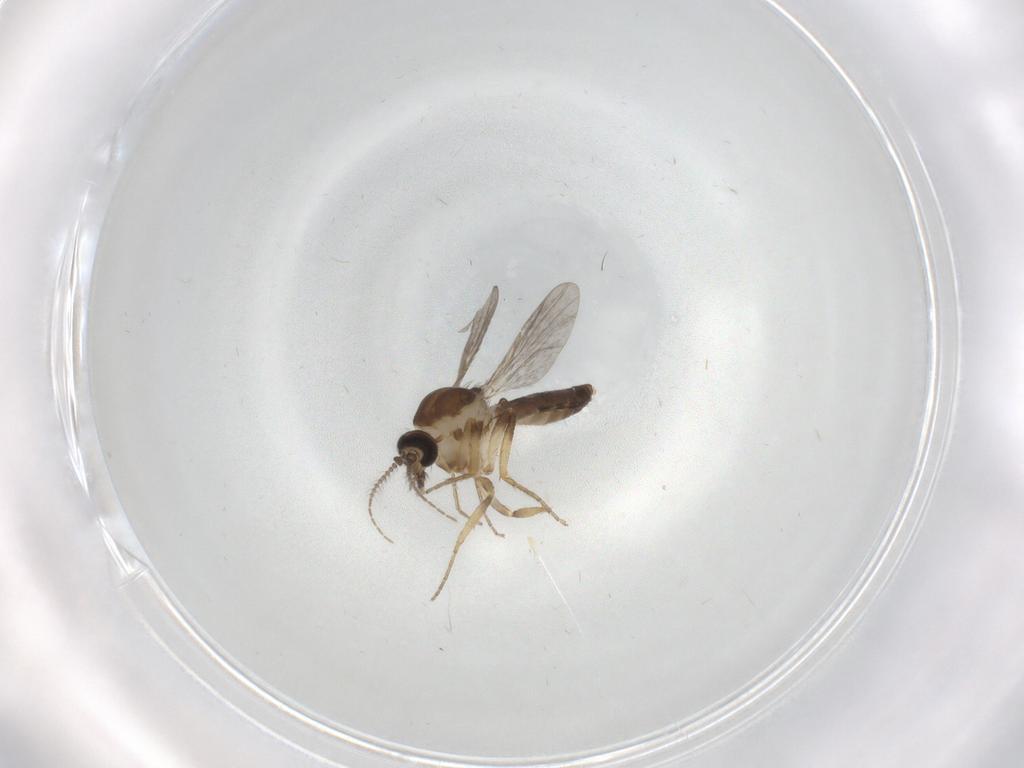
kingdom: Animalia
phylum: Arthropoda
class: Insecta
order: Diptera
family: Ceratopogonidae
